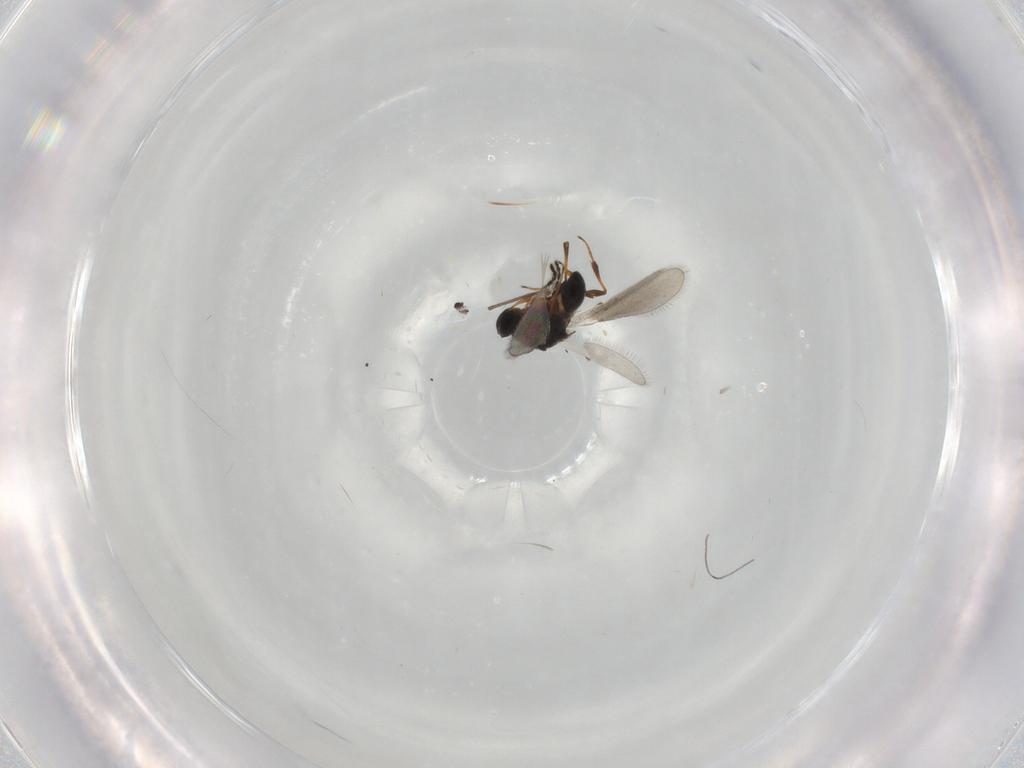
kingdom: Animalia
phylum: Arthropoda
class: Insecta
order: Hymenoptera
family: Platygastridae
